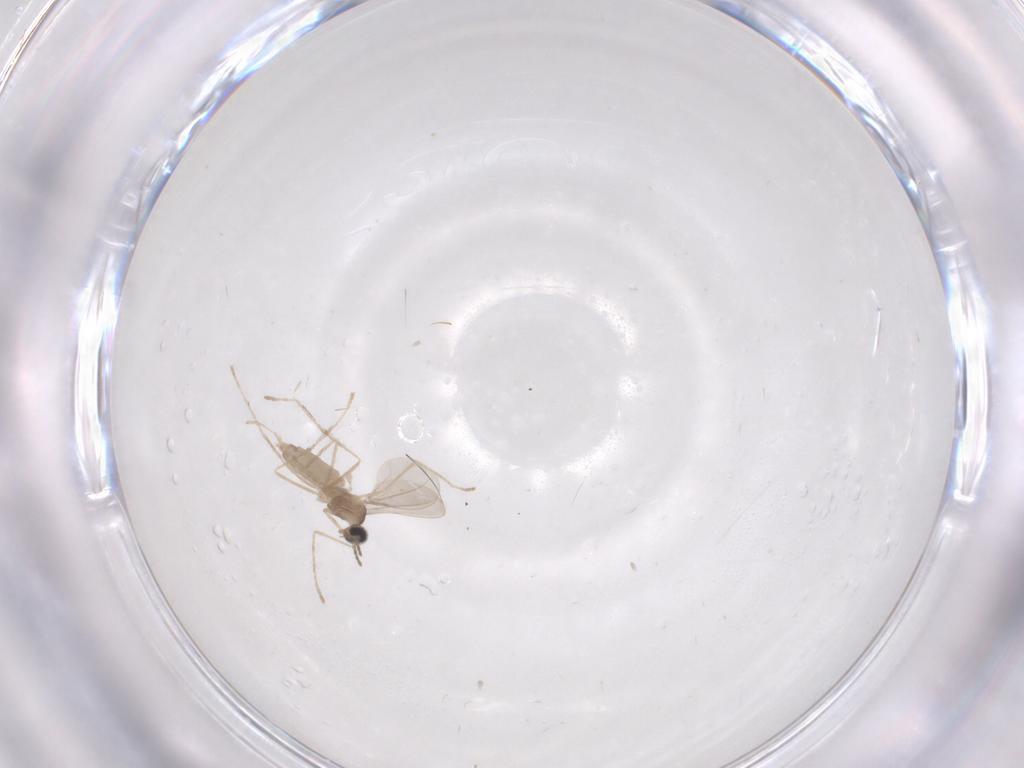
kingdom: Animalia
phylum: Arthropoda
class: Insecta
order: Diptera
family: Cecidomyiidae
